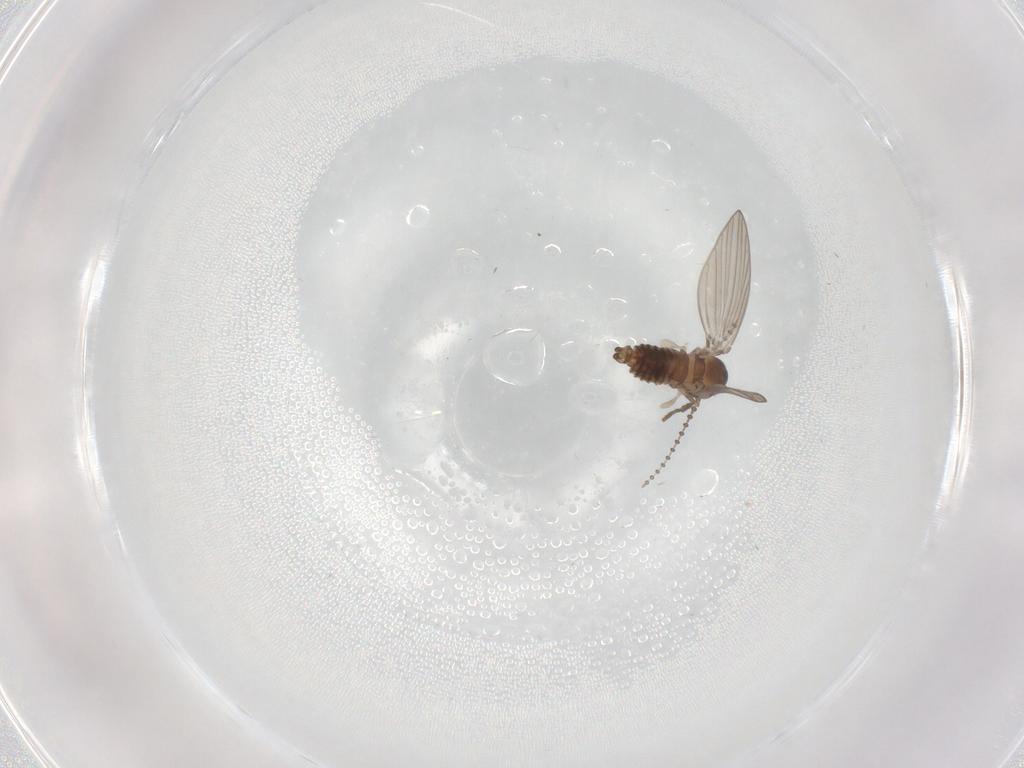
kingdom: Animalia
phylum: Arthropoda
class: Insecta
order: Diptera
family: Psychodidae
